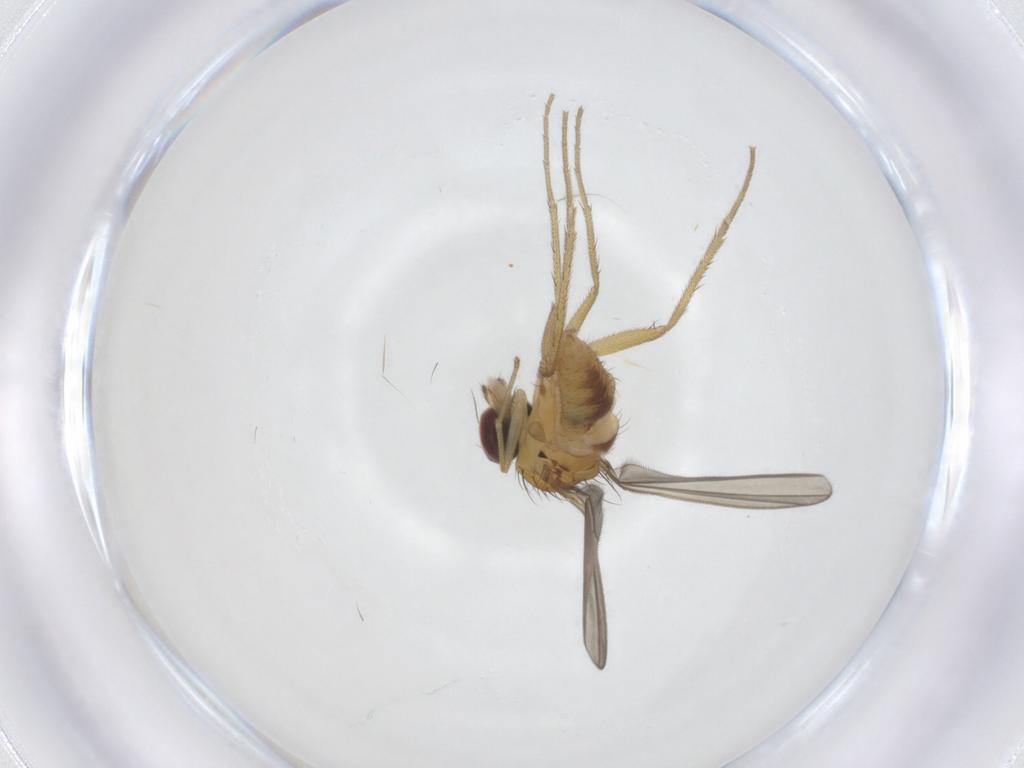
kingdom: Animalia
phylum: Arthropoda
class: Insecta
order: Diptera
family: Dolichopodidae
